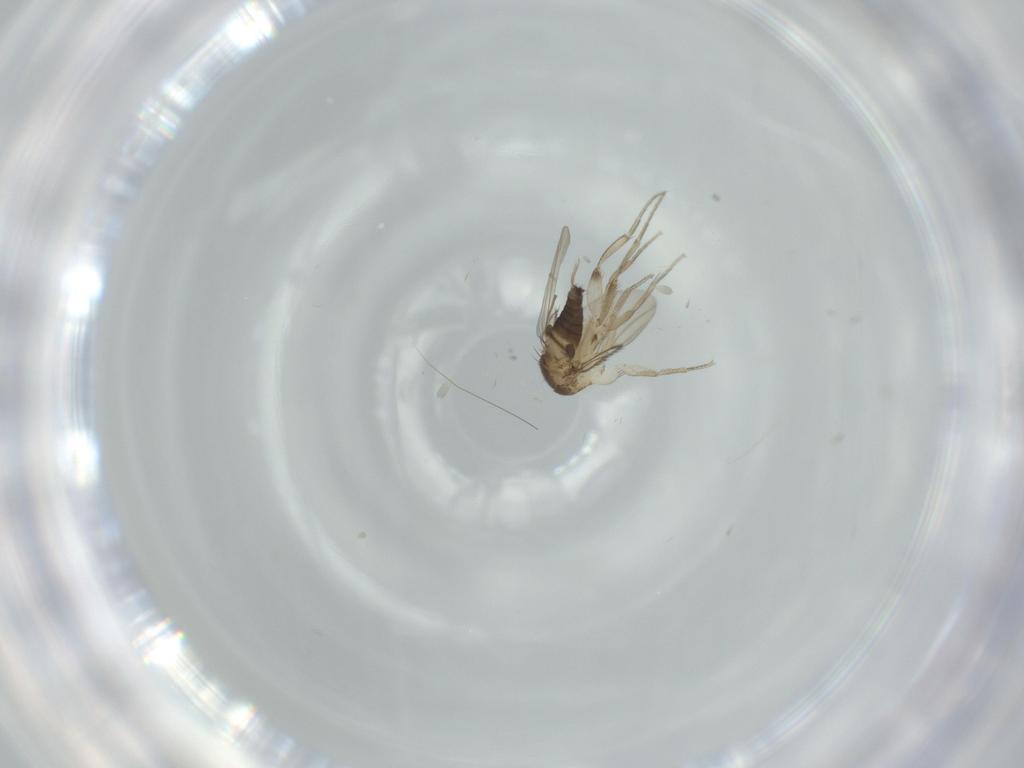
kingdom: Animalia
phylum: Arthropoda
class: Insecta
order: Diptera
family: Phoridae
